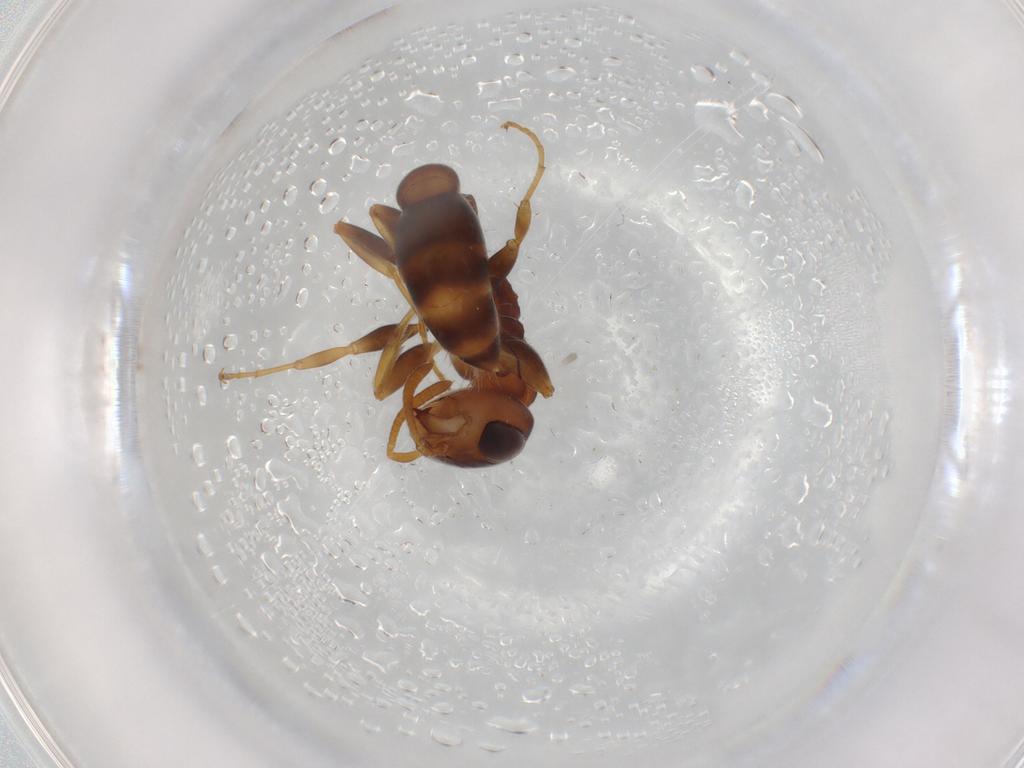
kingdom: Animalia
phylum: Arthropoda
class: Insecta
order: Hymenoptera
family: Formicidae
